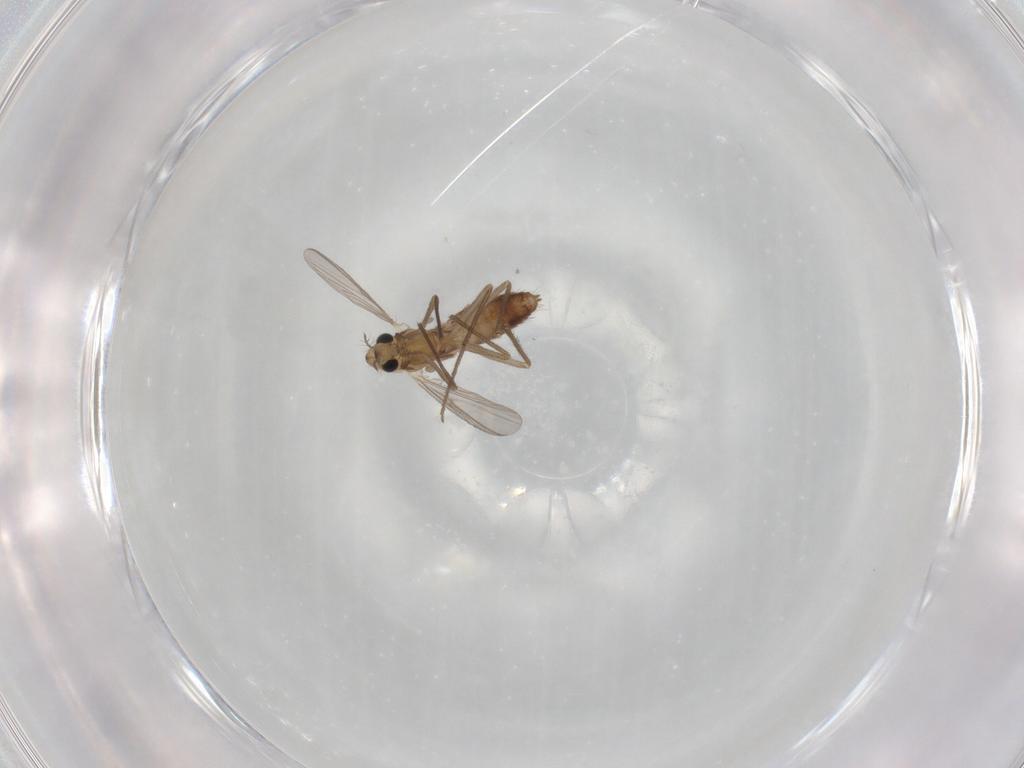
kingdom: Animalia
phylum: Arthropoda
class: Insecta
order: Diptera
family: Chironomidae
